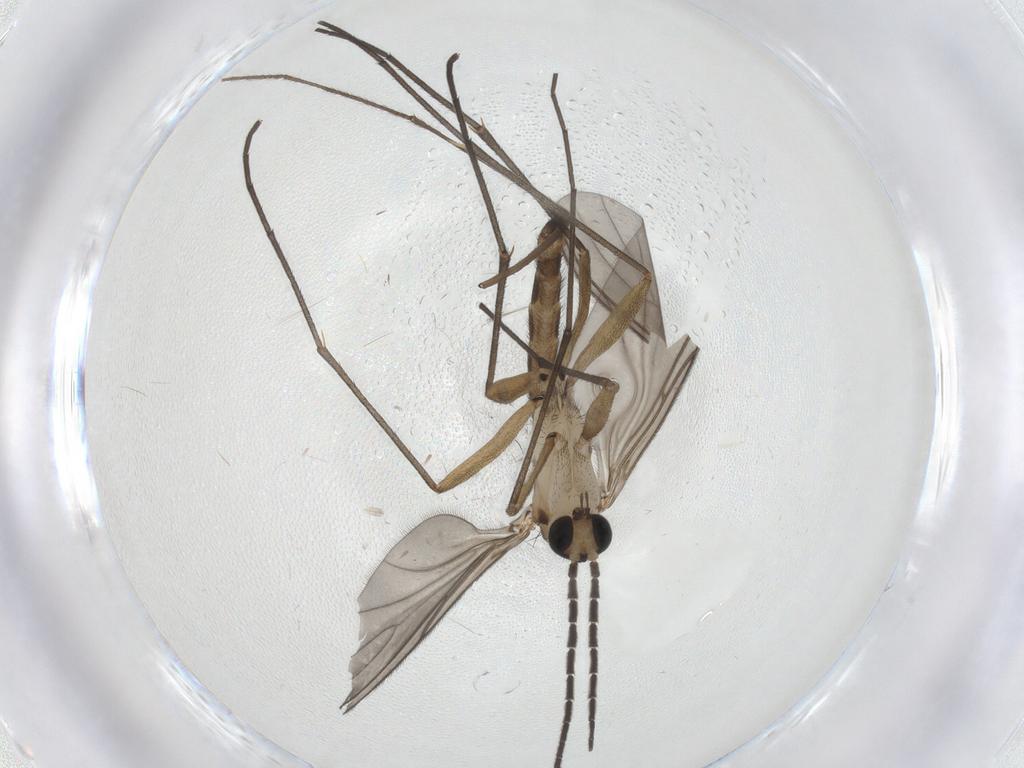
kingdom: Animalia
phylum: Arthropoda
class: Insecta
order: Diptera
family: Sciaridae
